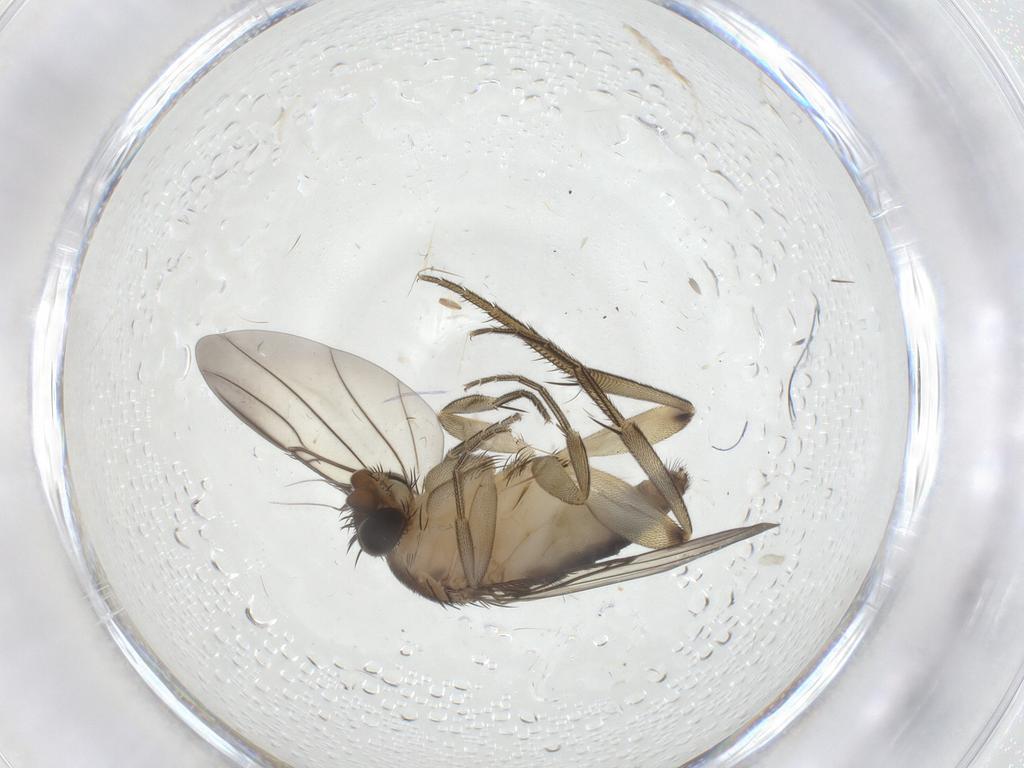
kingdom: Animalia
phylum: Arthropoda
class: Insecta
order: Diptera
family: Phoridae
